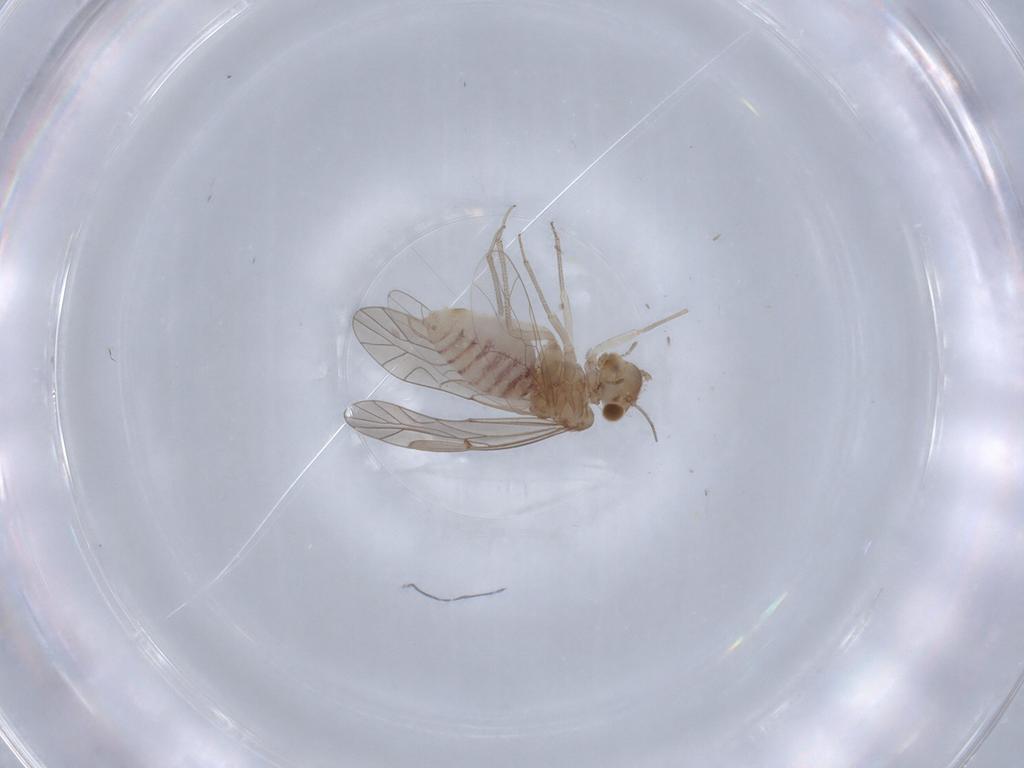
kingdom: Animalia
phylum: Arthropoda
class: Insecta
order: Psocodea
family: Lachesillidae
